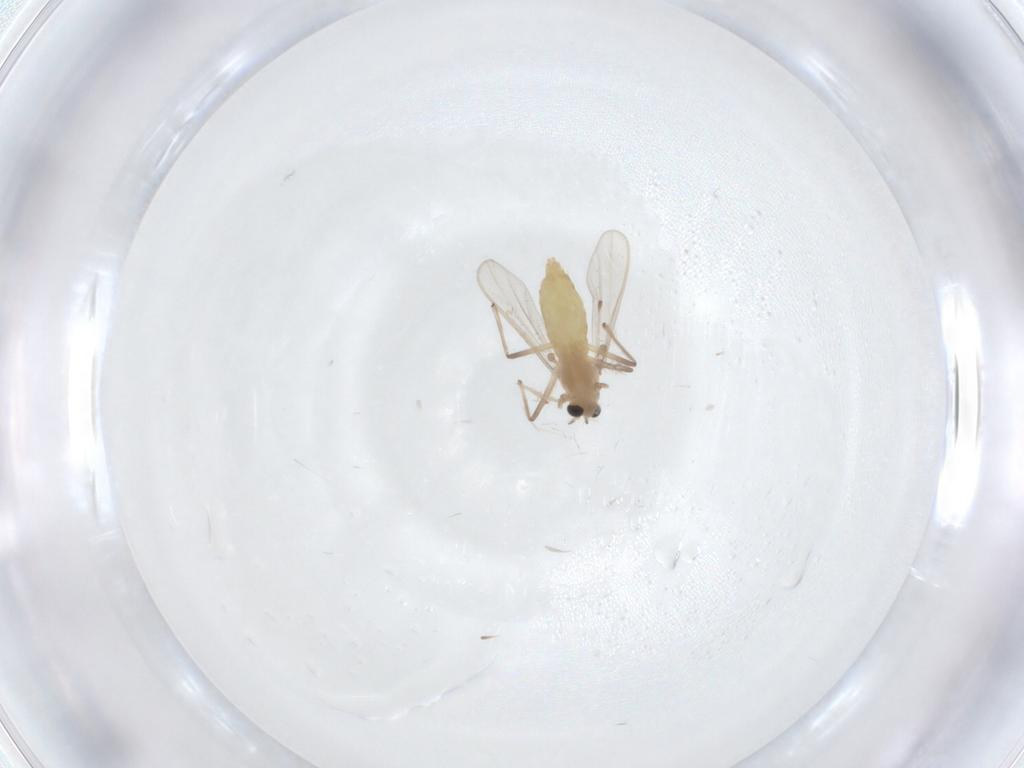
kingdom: Animalia
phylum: Arthropoda
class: Insecta
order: Diptera
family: Chironomidae
